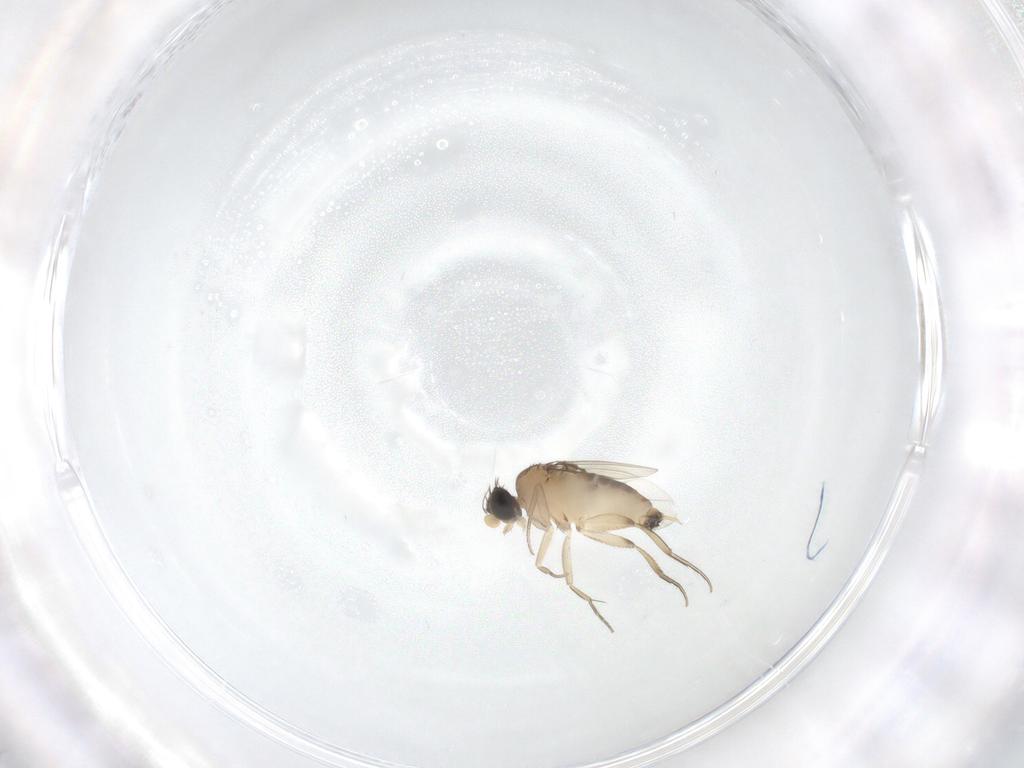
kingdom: Animalia
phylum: Arthropoda
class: Insecta
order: Diptera
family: Phoridae
